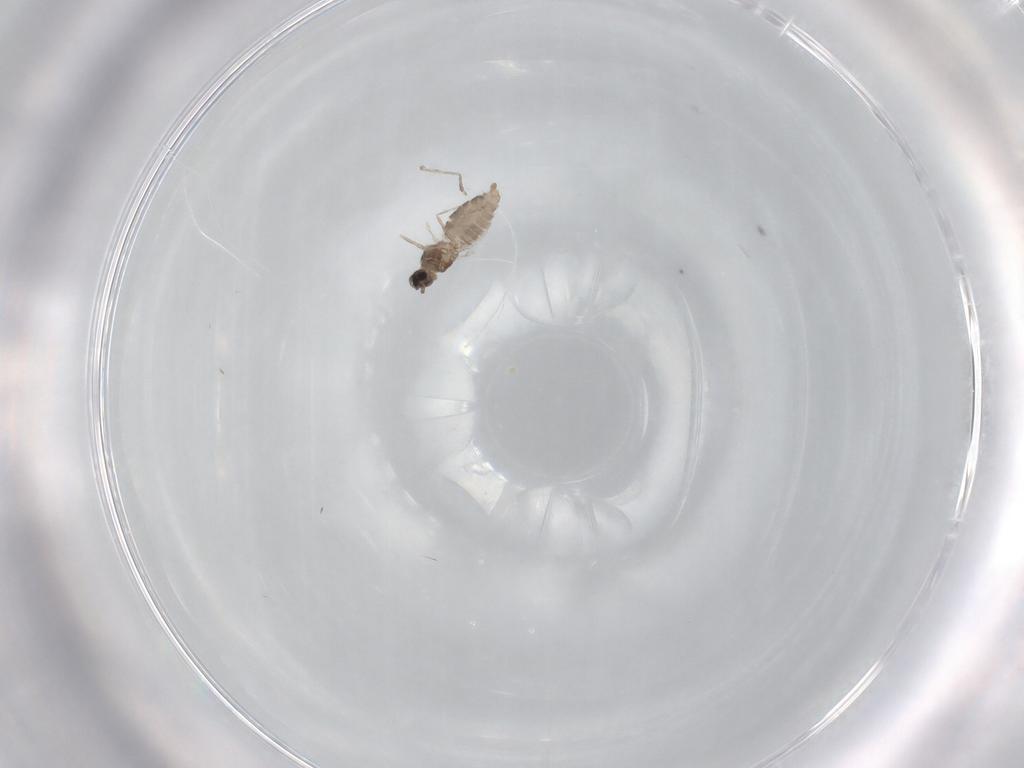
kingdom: Animalia
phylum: Arthropoda
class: Insecta
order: Diptera
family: Cecidomyiidae
